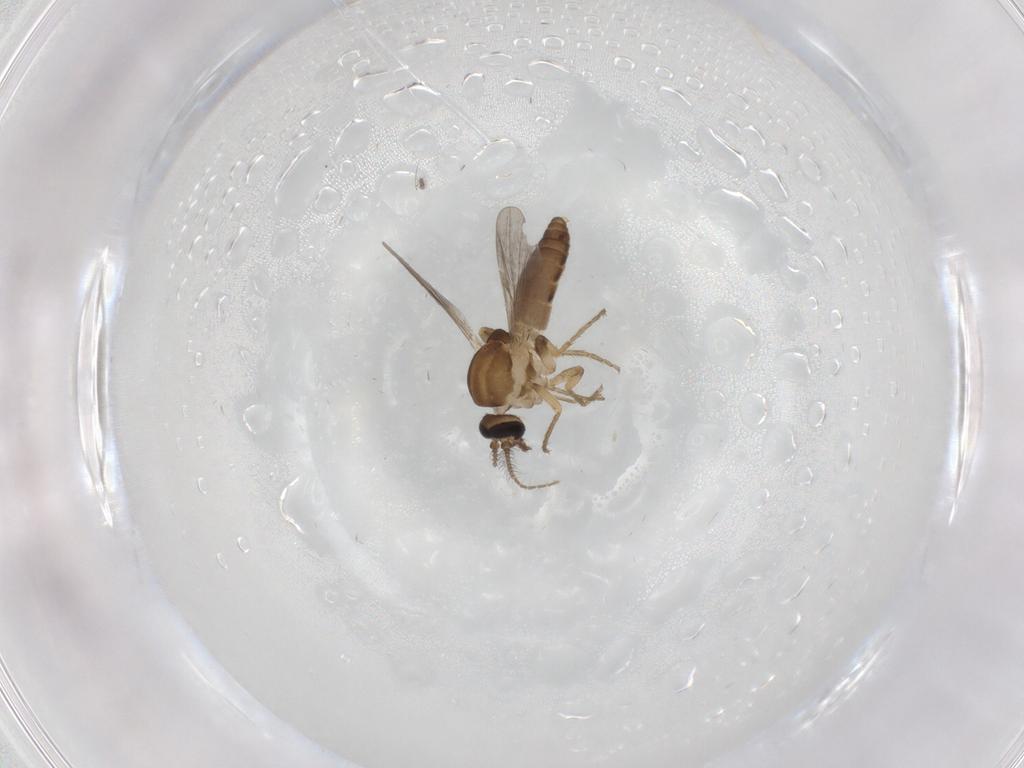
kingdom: Animalia
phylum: Arthropoda
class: Insecta
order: Diptera
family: Ceratopogonidae
